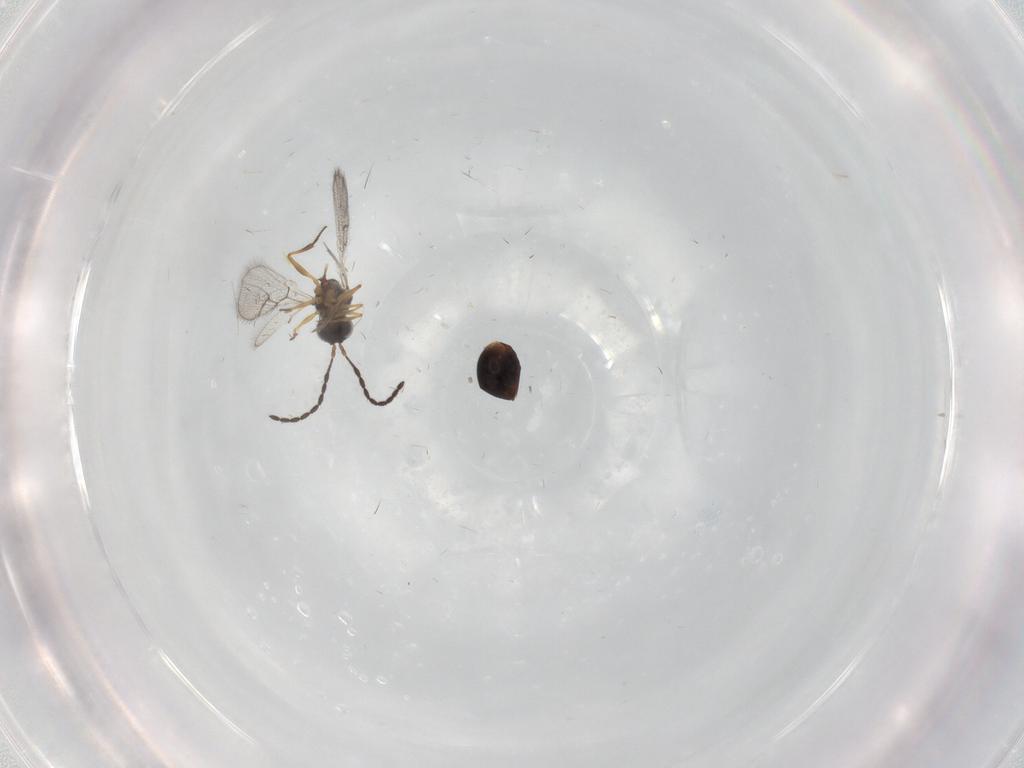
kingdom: Animalia
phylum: Arthropoda
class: Insecta
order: Hymenoptera
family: Figitidae
